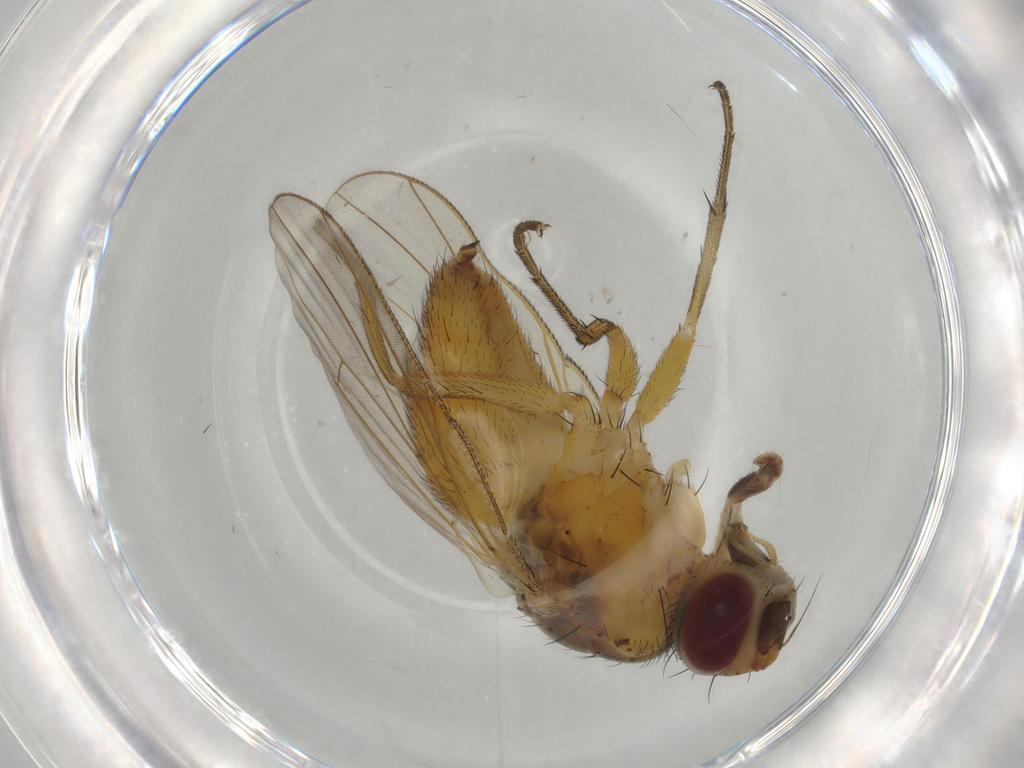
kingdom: Animalia
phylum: Arthropoda
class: Insecta
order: Diptera
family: Muscidae
